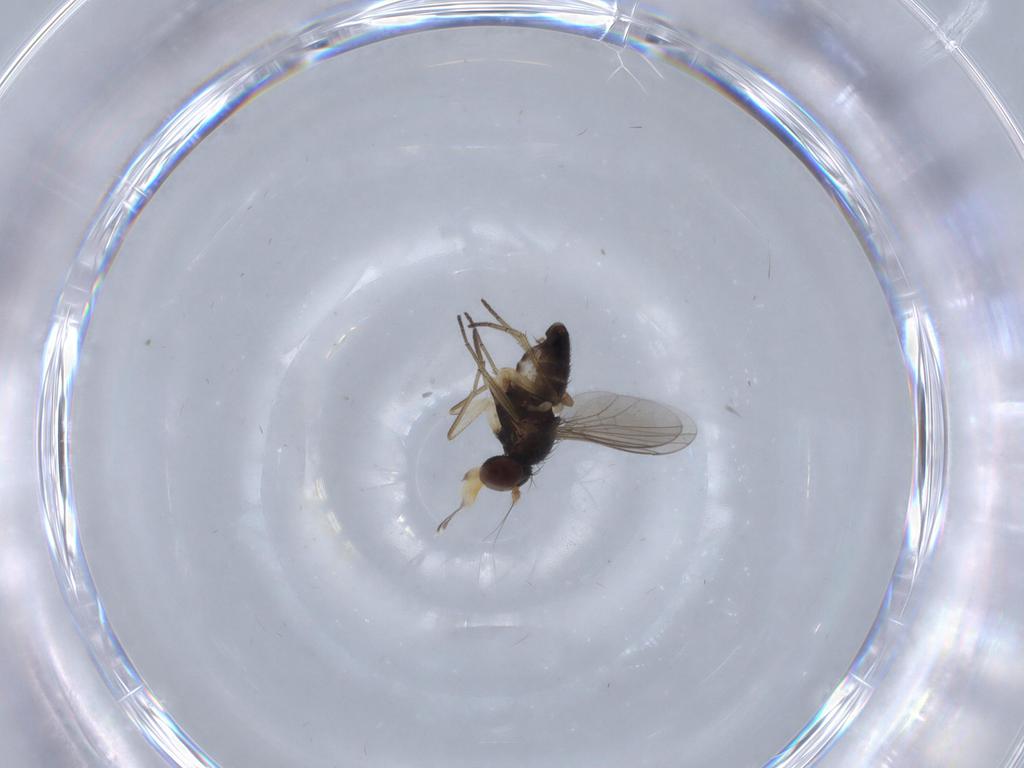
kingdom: Animalia
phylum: Arthropoda
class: Insecta
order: Diptera
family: Dolichopodidae
